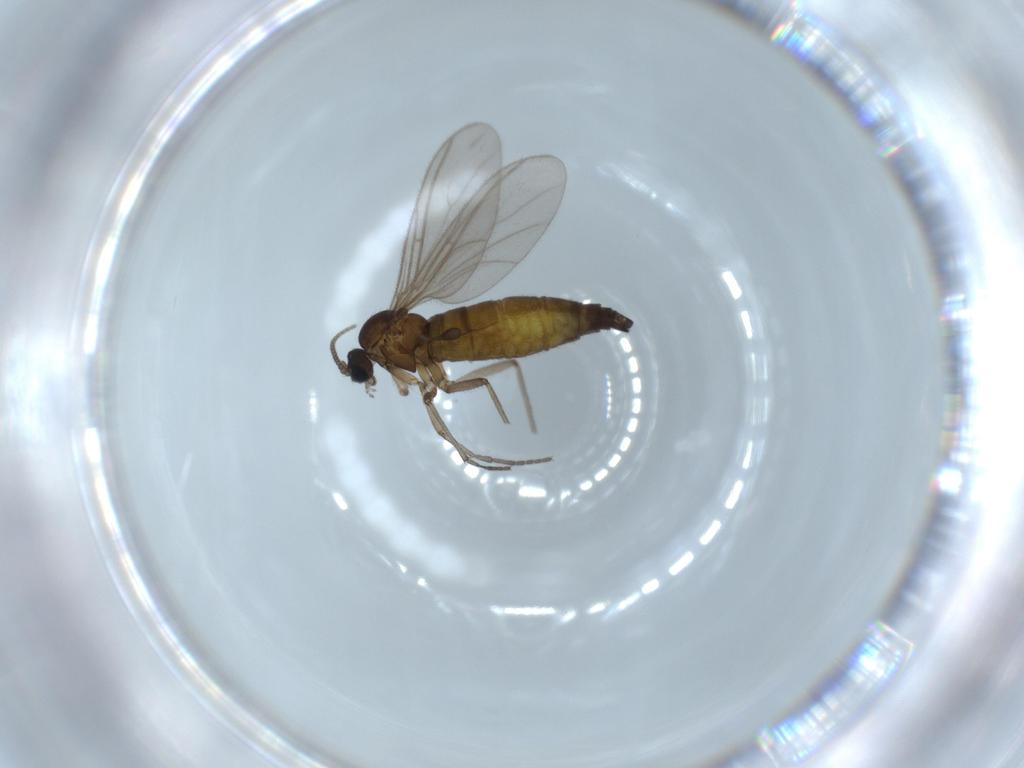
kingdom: Animalia
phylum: Arthropoda
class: Insecta
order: Diptera
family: Sciaridae
